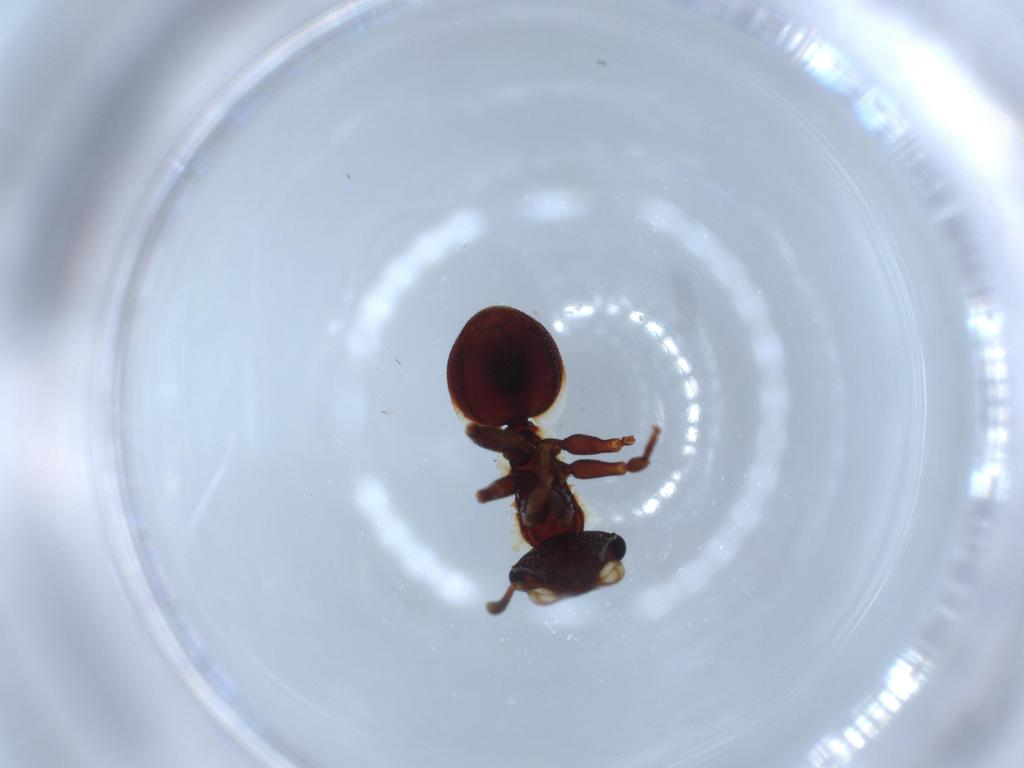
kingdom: Animalia
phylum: Arthropoda
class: Insecta
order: Hymenoptera
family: Formicidae
